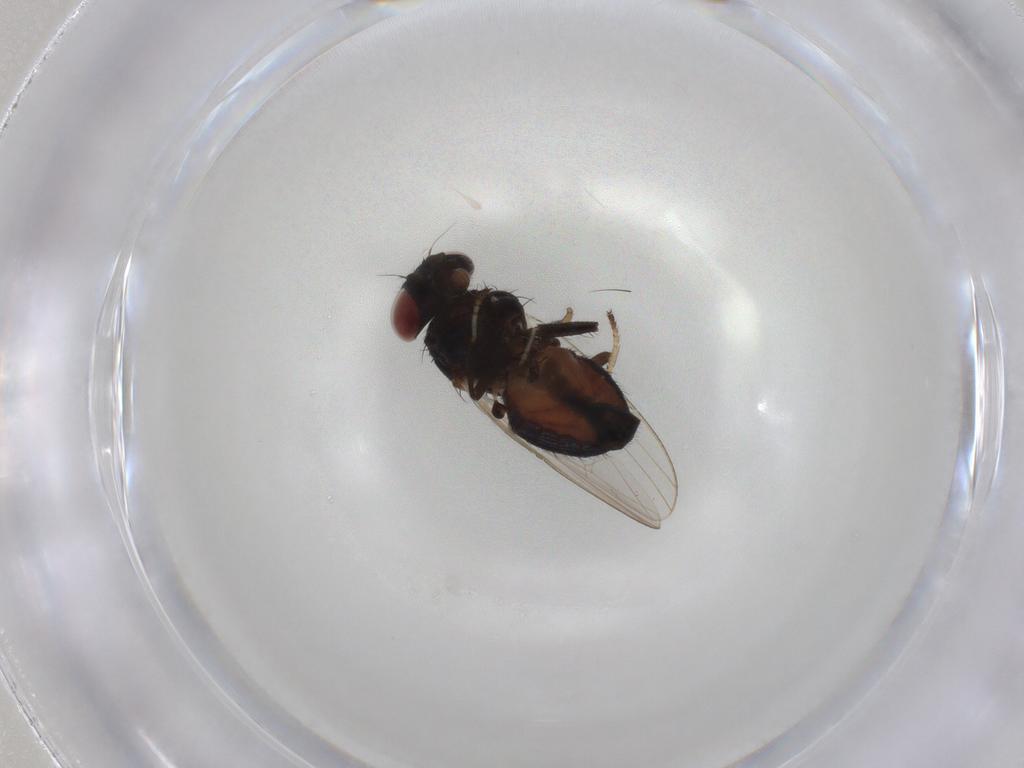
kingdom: Animalia
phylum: Arthropoda
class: Insecta
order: Diptera
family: Lonchaeidae
